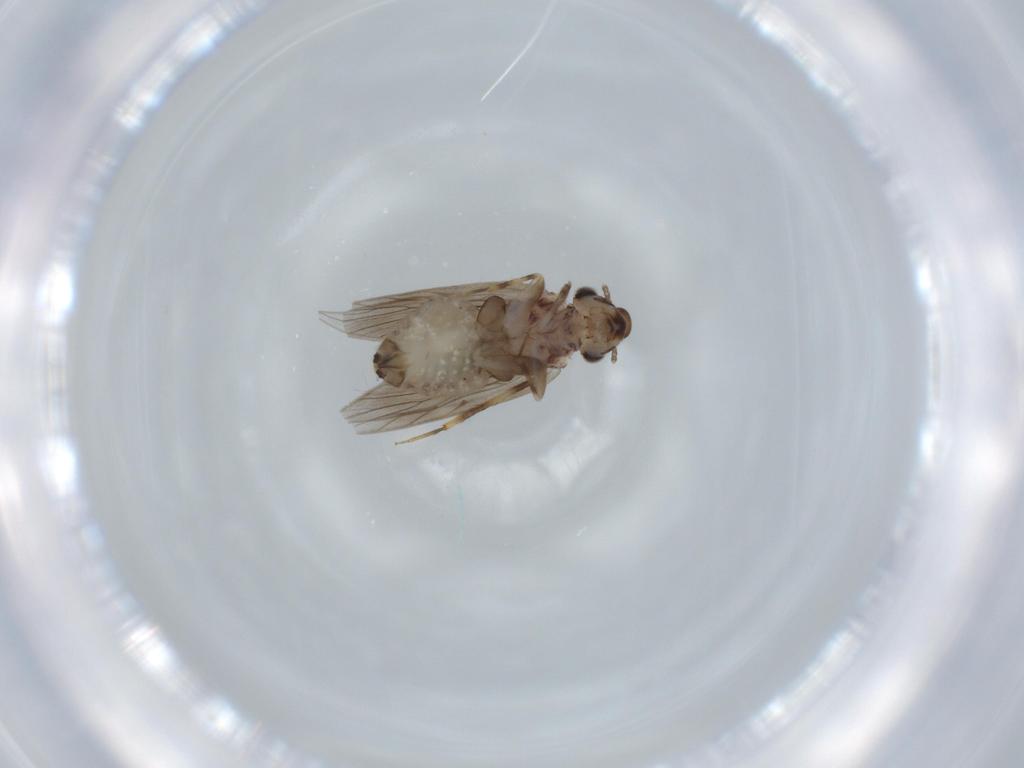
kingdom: Animalia
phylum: Arthropoda
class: Insecta
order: Psocodea
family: Lepidopsocidae
